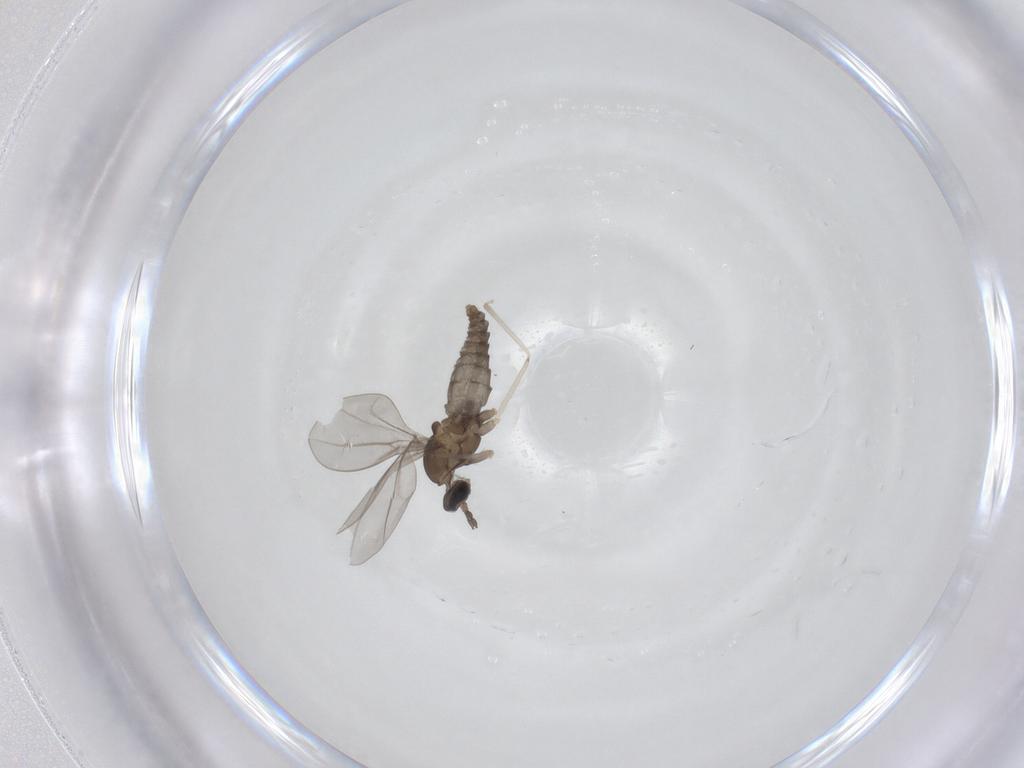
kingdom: Animalia
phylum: Arthropoda
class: Insecta
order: Diptera
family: Cecidomyiidae
